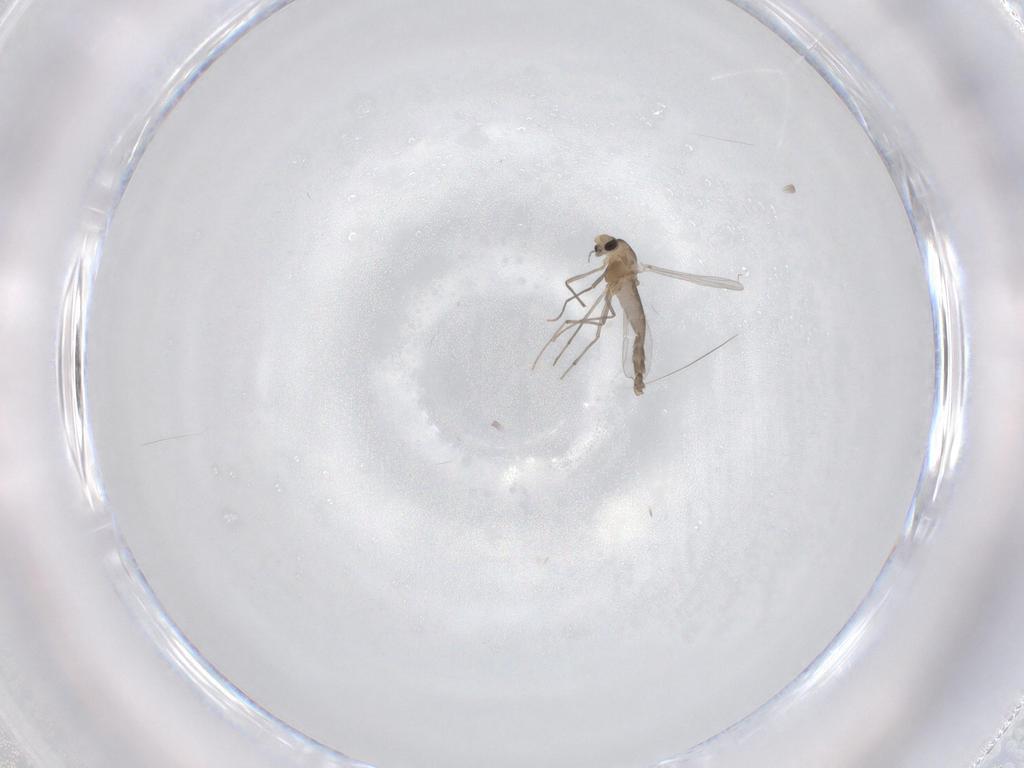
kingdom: Animalia
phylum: Arthropoda
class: Insecta
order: Diptera
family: Chironomidae
